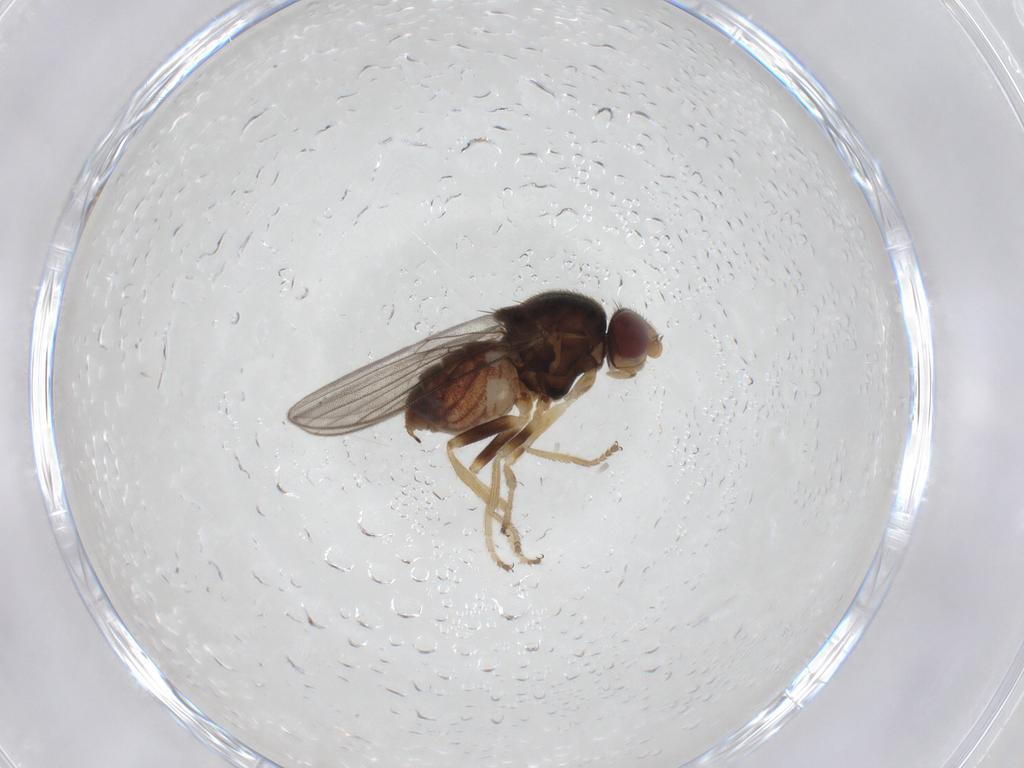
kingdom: Animalia
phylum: Arthropoda
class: Insecta
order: Diptera
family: Chloropidae
